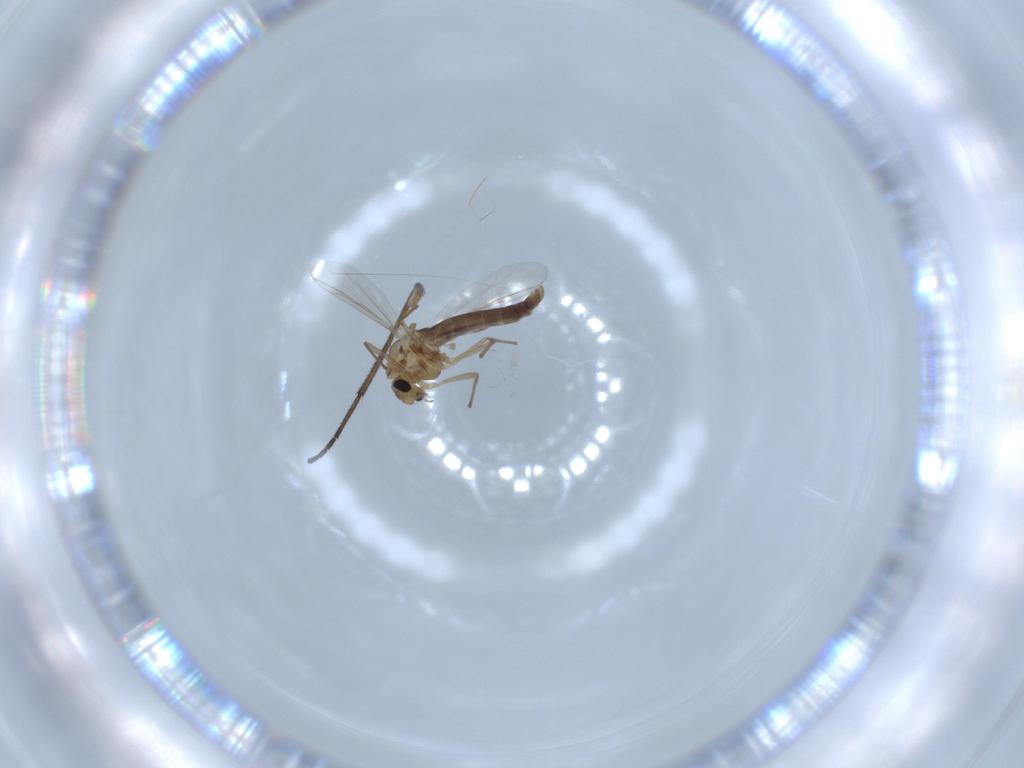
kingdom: Animalia
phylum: Arthropoda
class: Insecta
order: Diptera
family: Chironomidae
